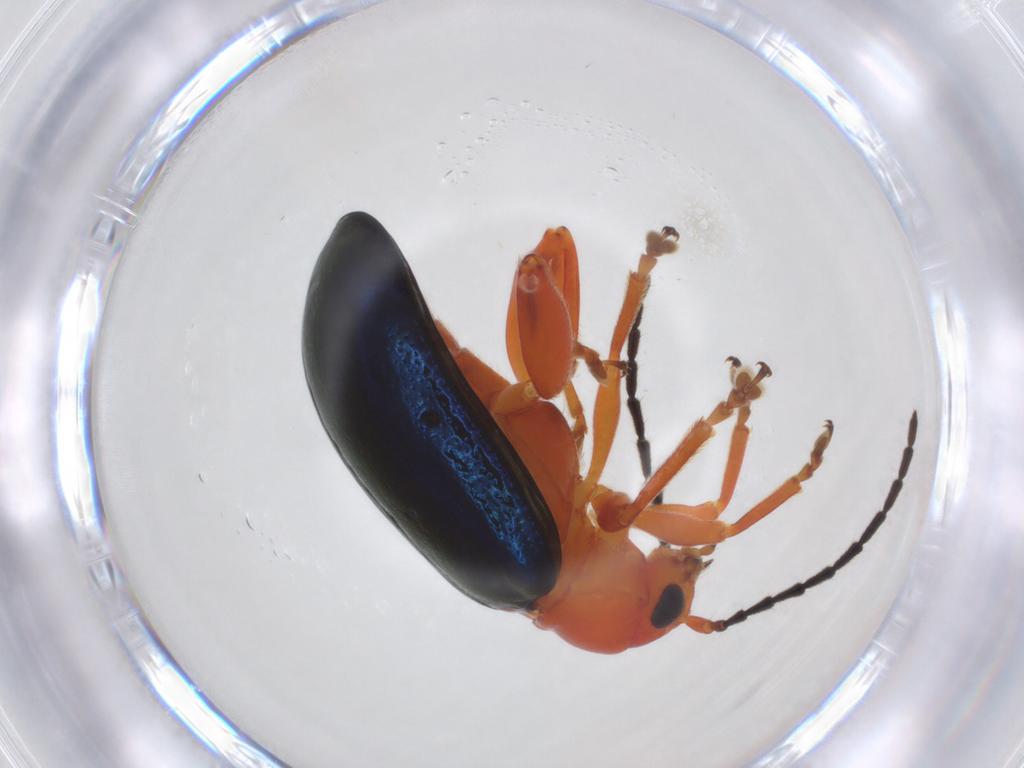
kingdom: Animalia
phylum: Arthropoda
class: Insecta
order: Coleoptera
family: Chrysomelidae
